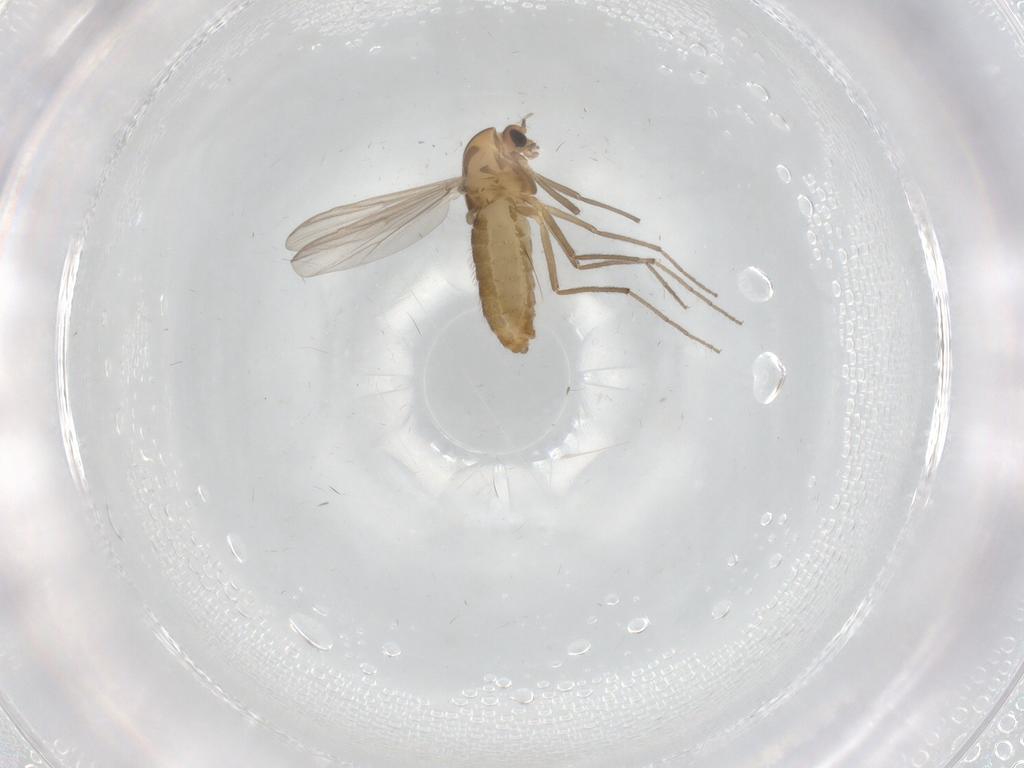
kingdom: Animalia
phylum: Arthropoda
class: Insecta
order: Diptera
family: Chironomidae
